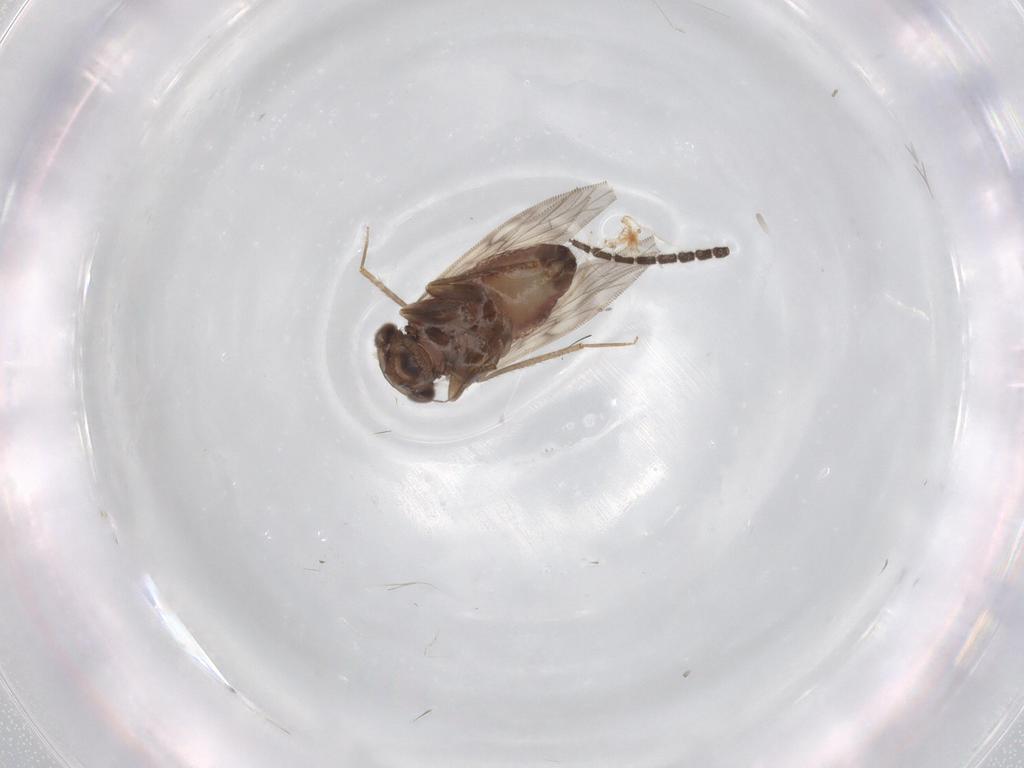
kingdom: Animalia
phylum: Arthropoda
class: Insecta
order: Psocodea
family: Lepidopsocidae
